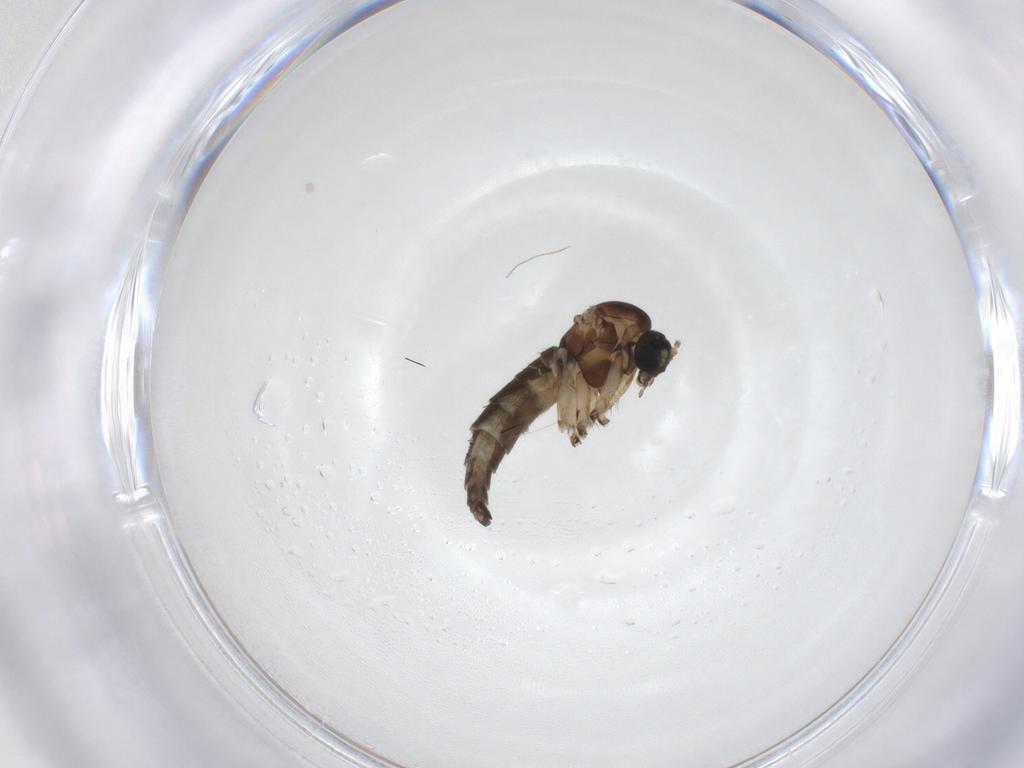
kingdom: Animalia
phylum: Arthropoda
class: Insecta
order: Diptera
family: Sciaridae
